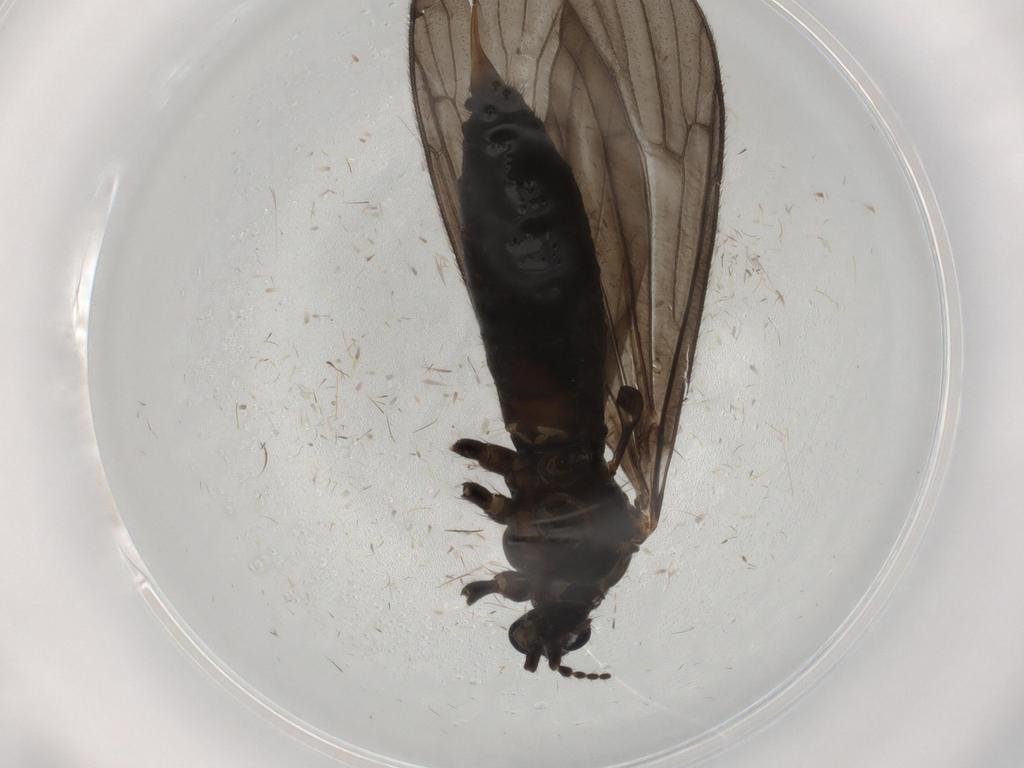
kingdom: Animalia
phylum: Arthropoda
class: Insecta
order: Diptera
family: Limoniidae
